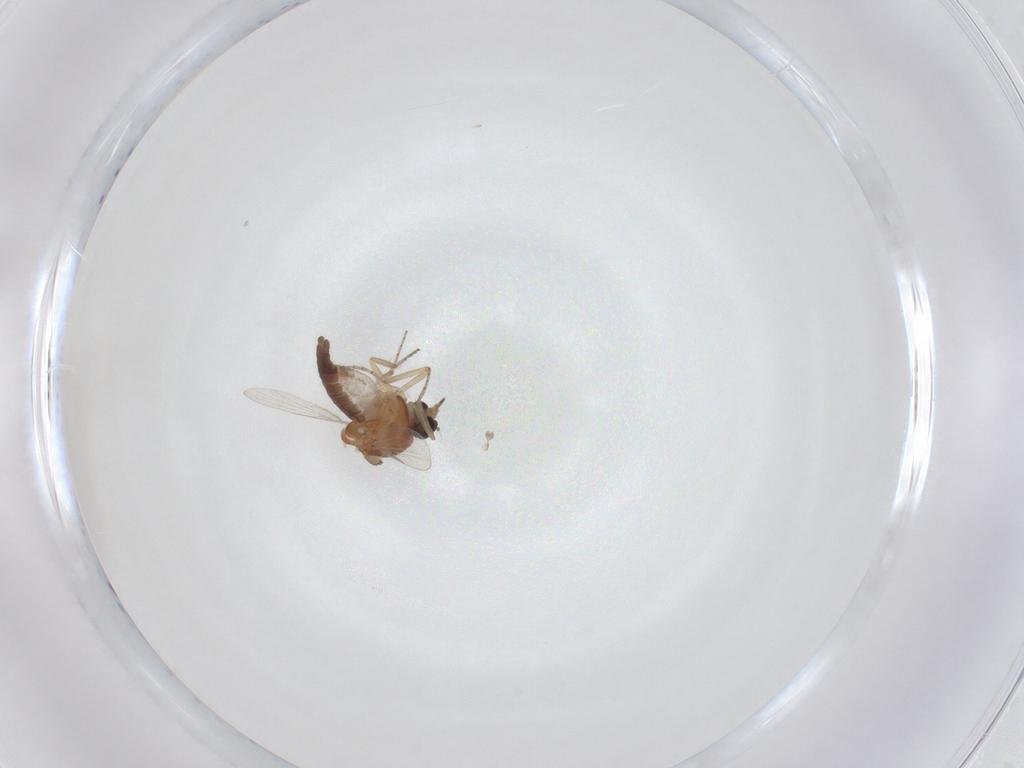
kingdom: Animalia
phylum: Arthropoda
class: Insecta
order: Diptera
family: Ceratopogonidae
